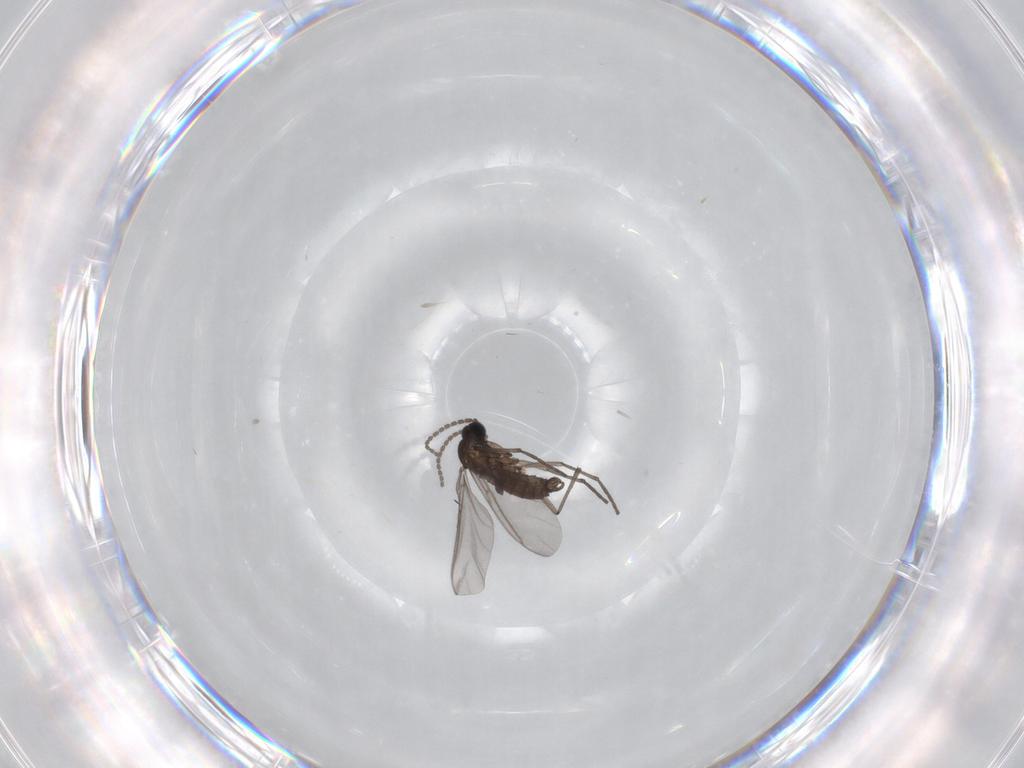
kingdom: Animalia
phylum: Arthropoda
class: Insecta
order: Diptera
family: Sciaridae
